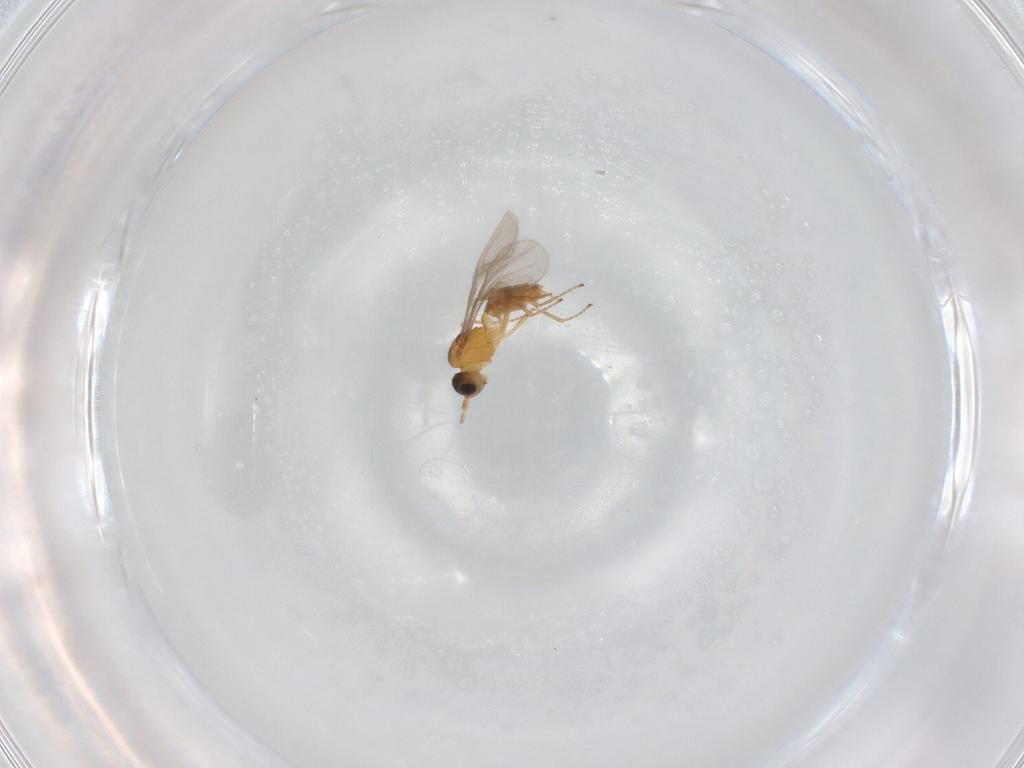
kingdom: Animalia
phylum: Arthropoda
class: Insecta
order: Hymenoptera
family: Braconidae
